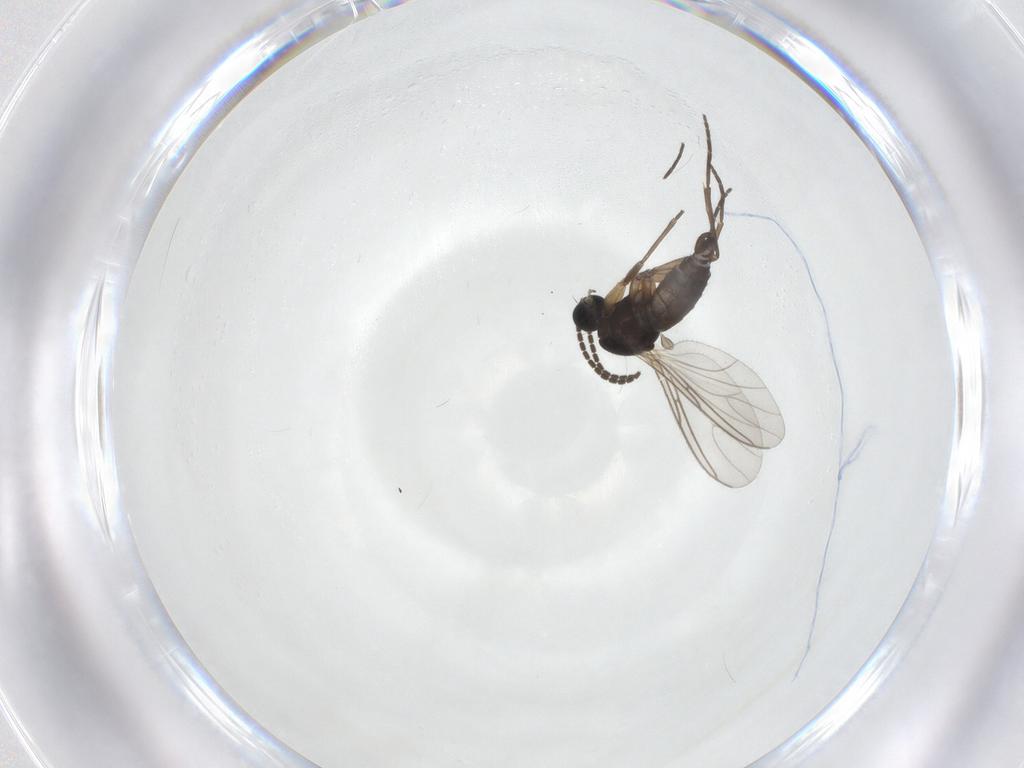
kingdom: Animalia
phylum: Arthropoda
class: Insecta
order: Diptera
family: Sciaridae
